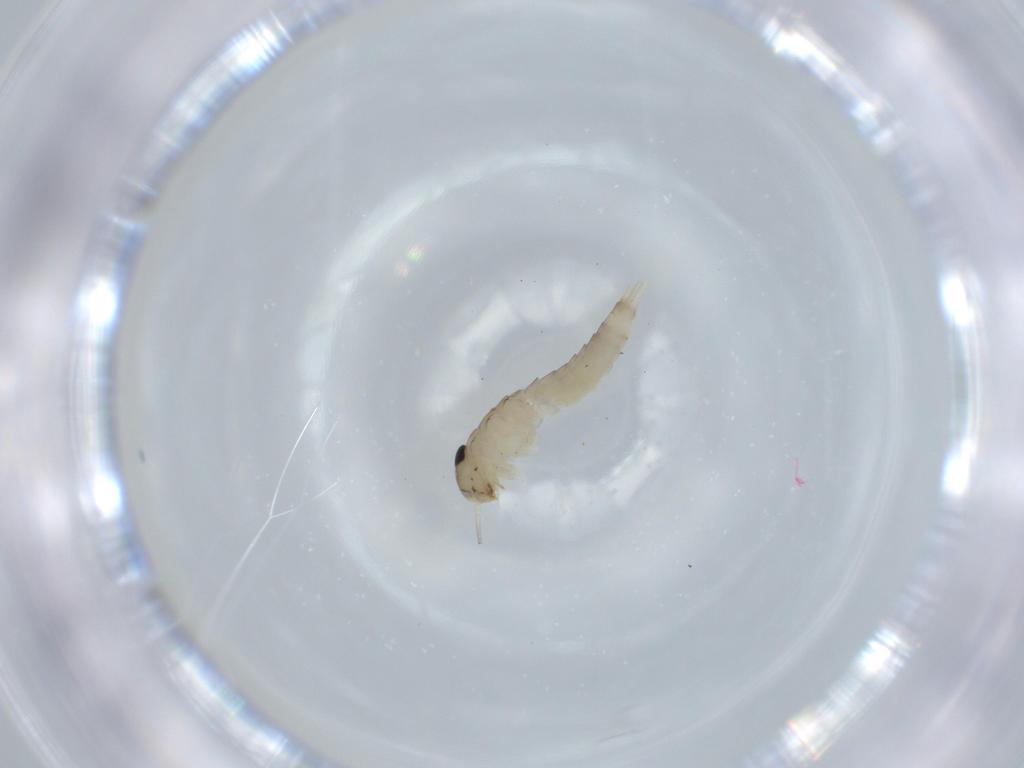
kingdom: Animalia
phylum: Arthropoda
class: Insecta
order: Ephemeroptera
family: Baetidae
